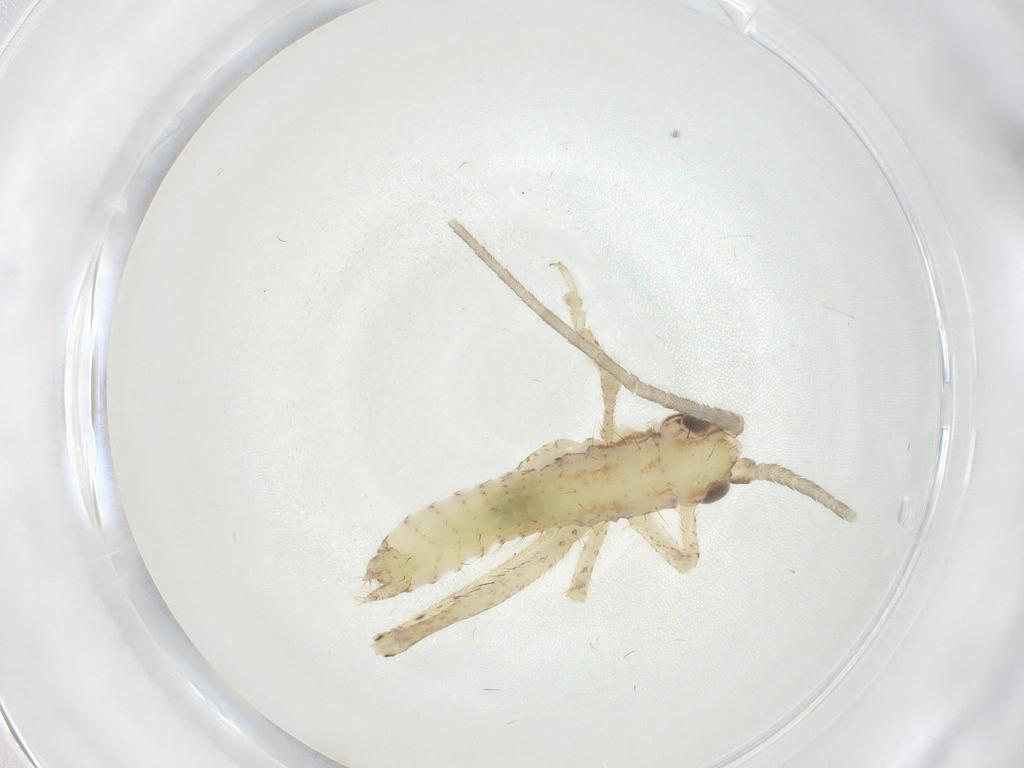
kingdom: Animalia
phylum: Arthropoda
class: Insecta
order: Orthoptera
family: Gryllidae
